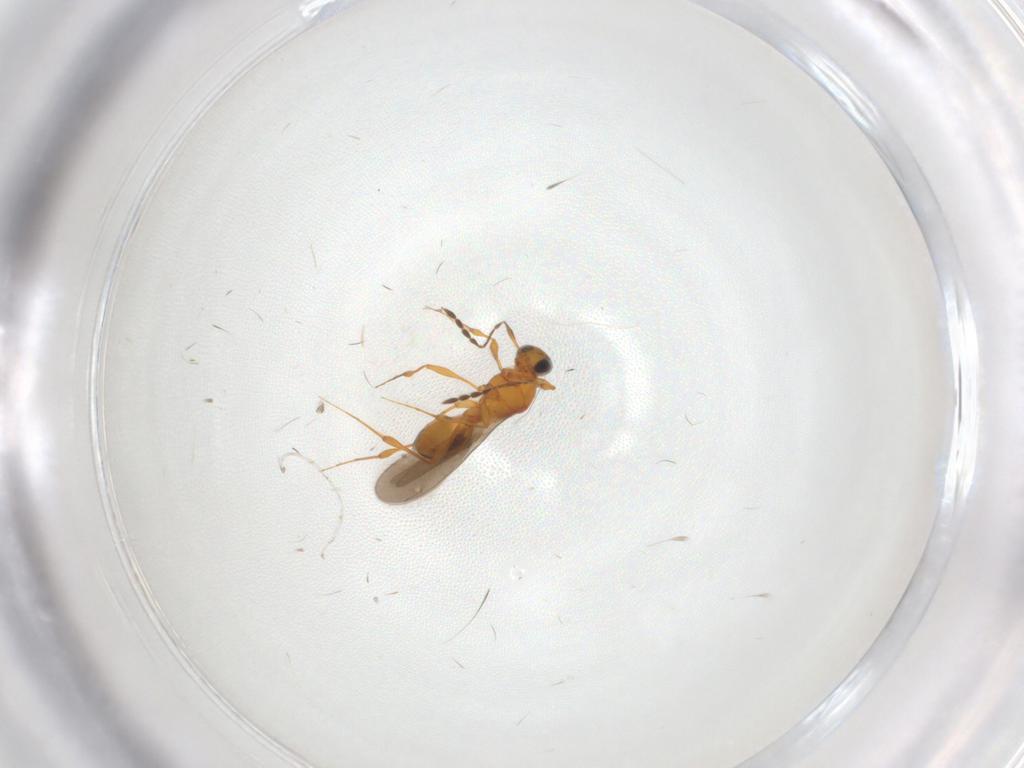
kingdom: Animalia
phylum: Arthropoda
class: Insecta
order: Hymenoptera
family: Platygastridae
